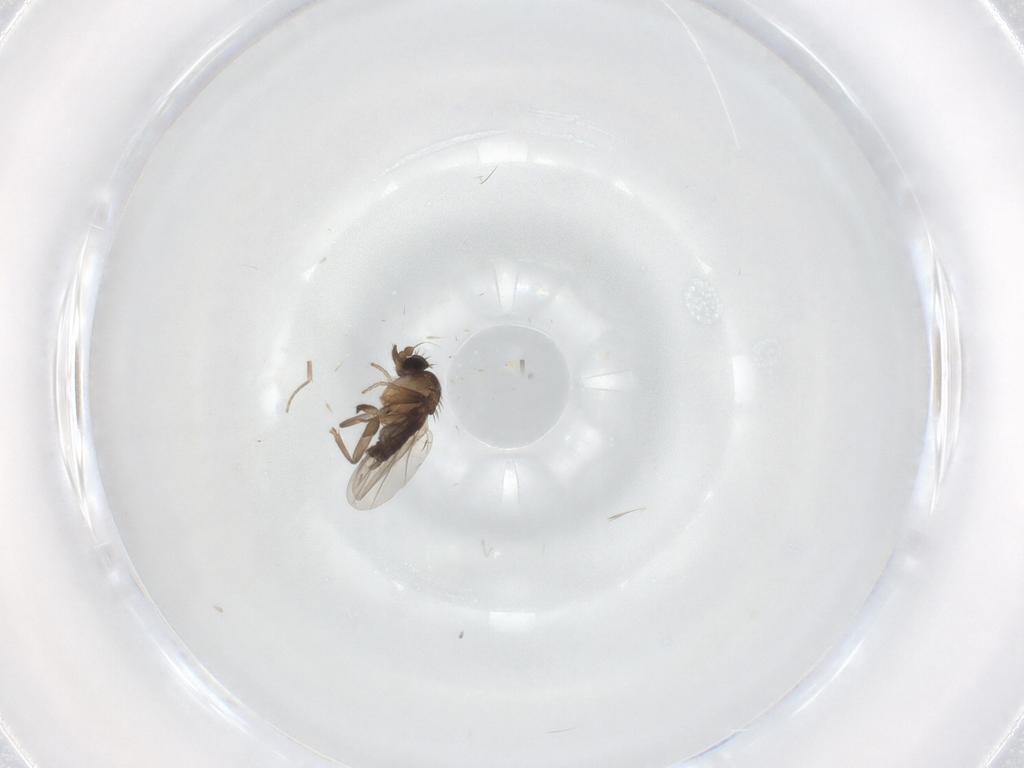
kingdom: Animalia
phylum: Arthropoda
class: Insecta
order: Diptera
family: Phoridae
